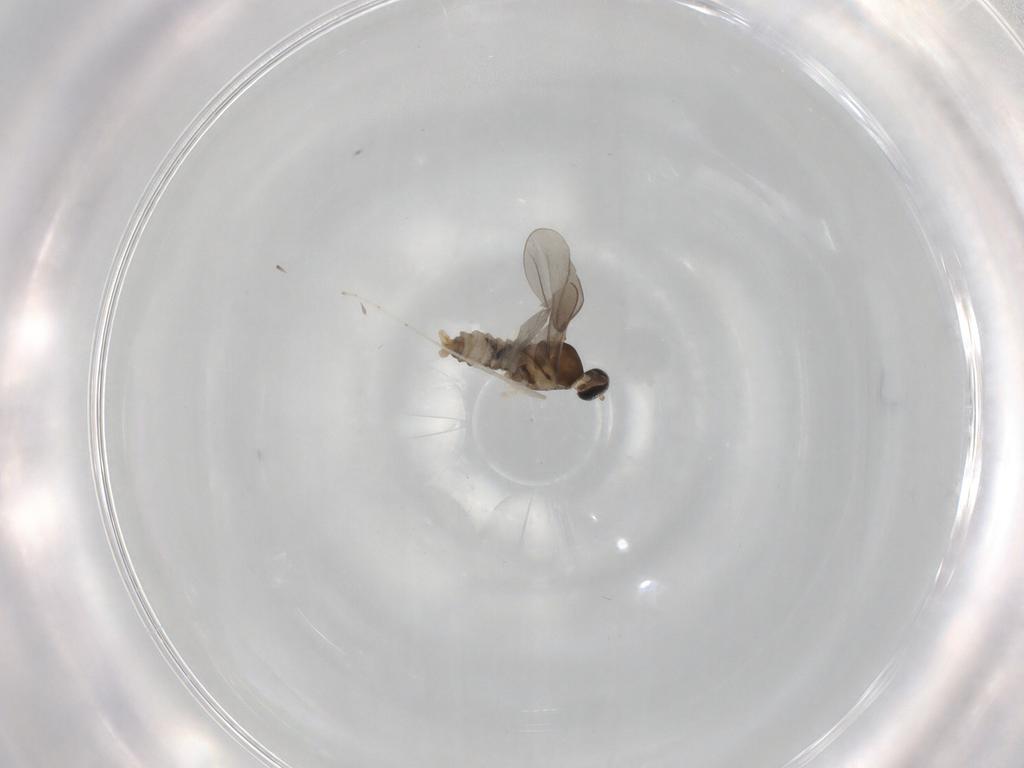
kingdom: Animalia
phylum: Arthropoda
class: Insecta
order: Diptera
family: Cecidomyiidae
